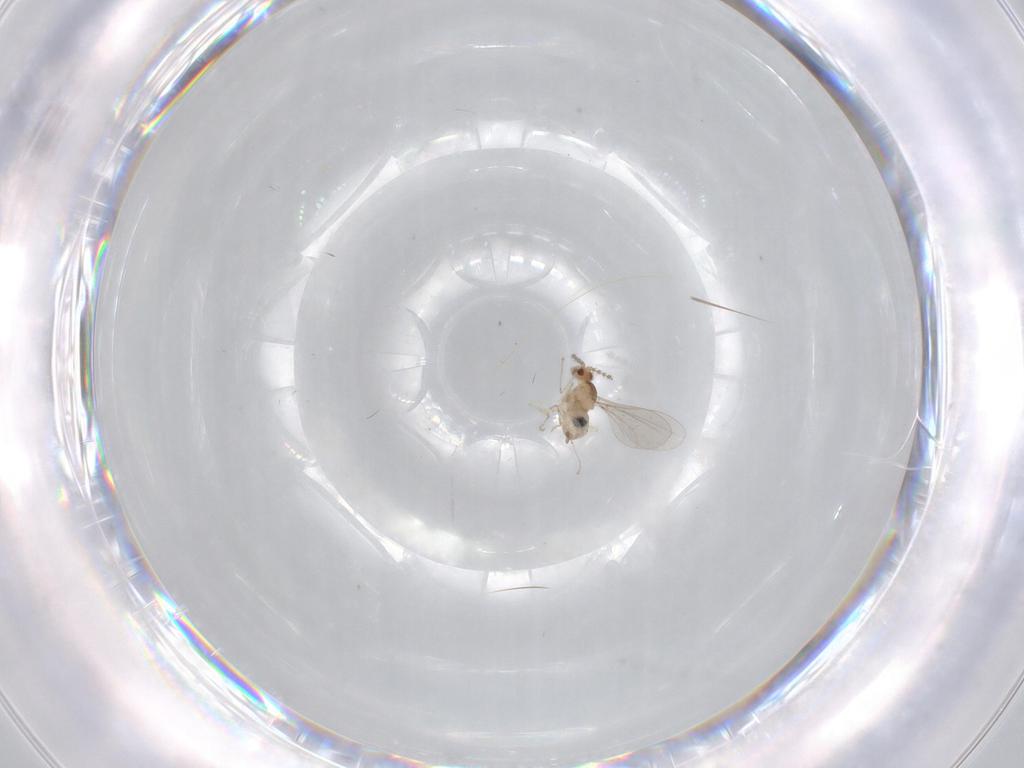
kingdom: Animalia
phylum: Arthropoda
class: Insecta
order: Diptera
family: Cecidomyiidae
